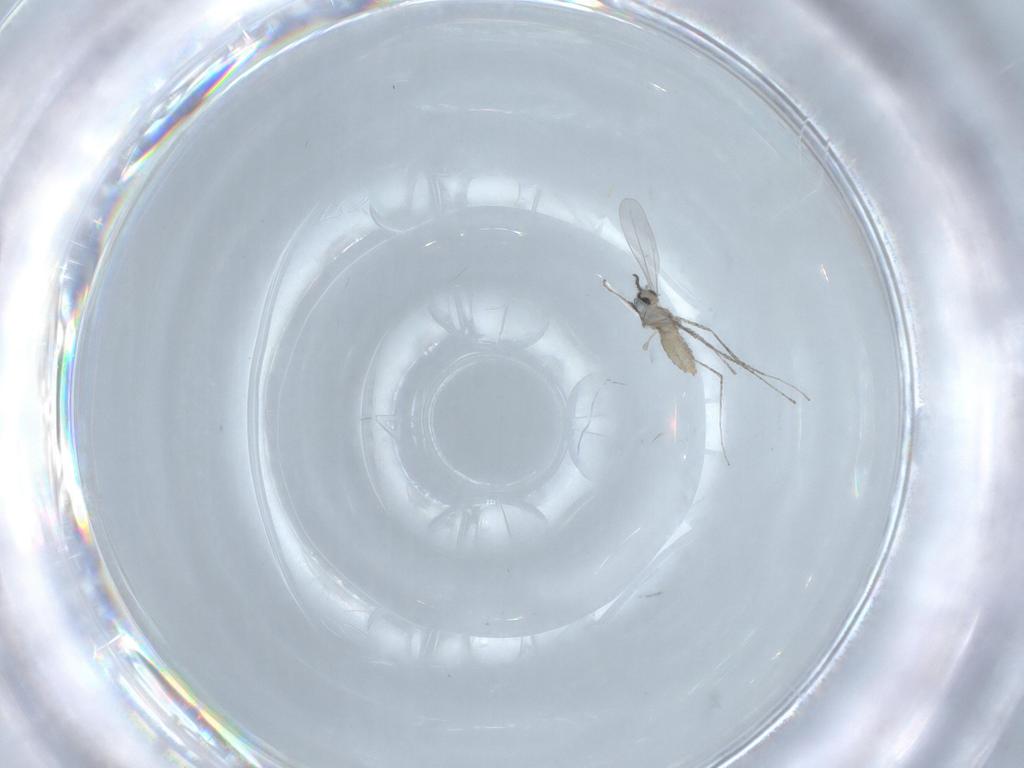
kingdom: Animalia
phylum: Arthropoda
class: Insecta
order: Diptera
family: Cecidomyiidae
